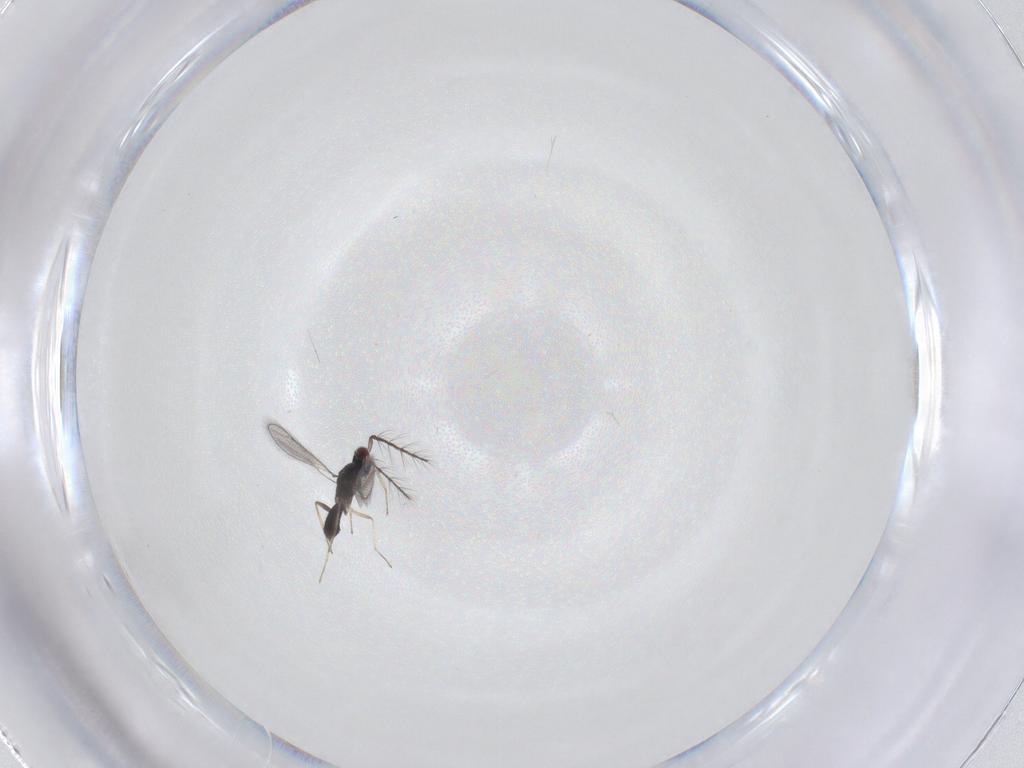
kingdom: Animalia
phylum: Arthropoda
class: Insecta
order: Hymenoptera
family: Eulophidae
